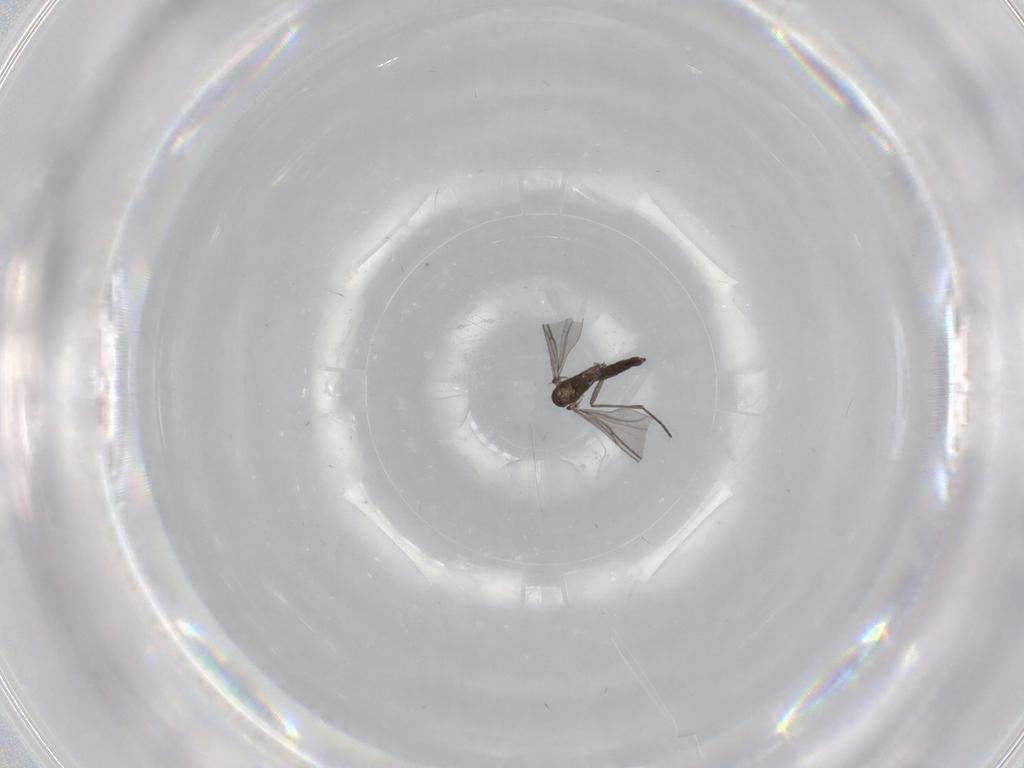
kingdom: Animalia
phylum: Arthropoda
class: Insecta
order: Diptera
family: Sciaridae
